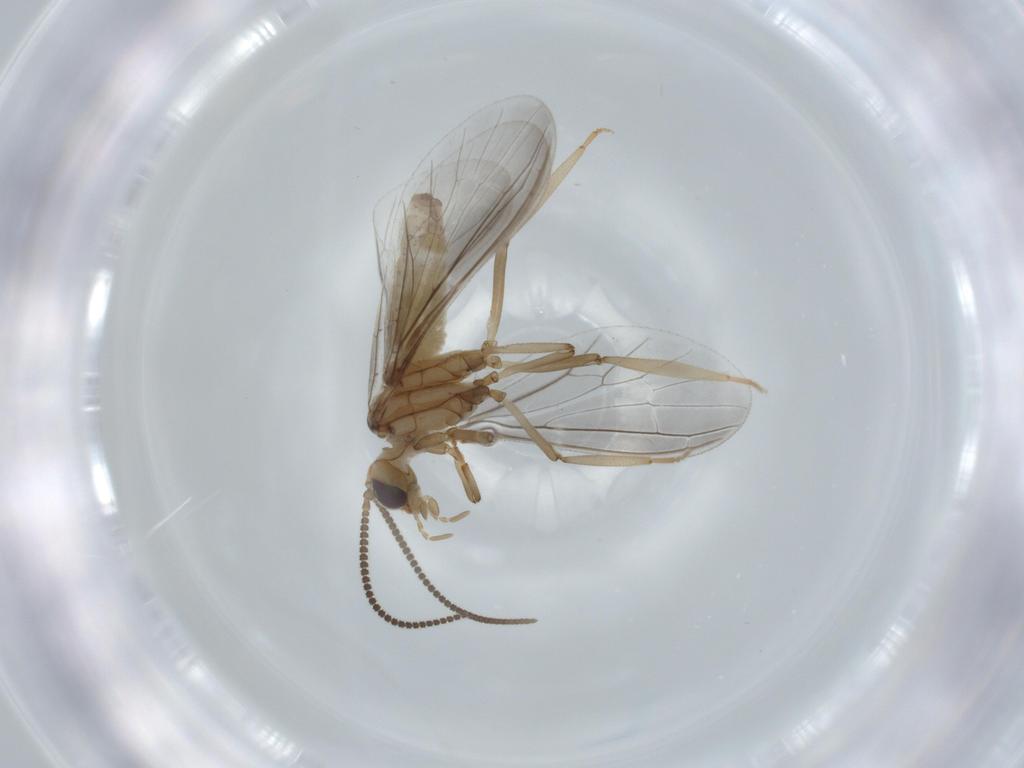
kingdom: Animalia
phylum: Arthropoda
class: Insecta
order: Neuroptera
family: Coniopterygidae
